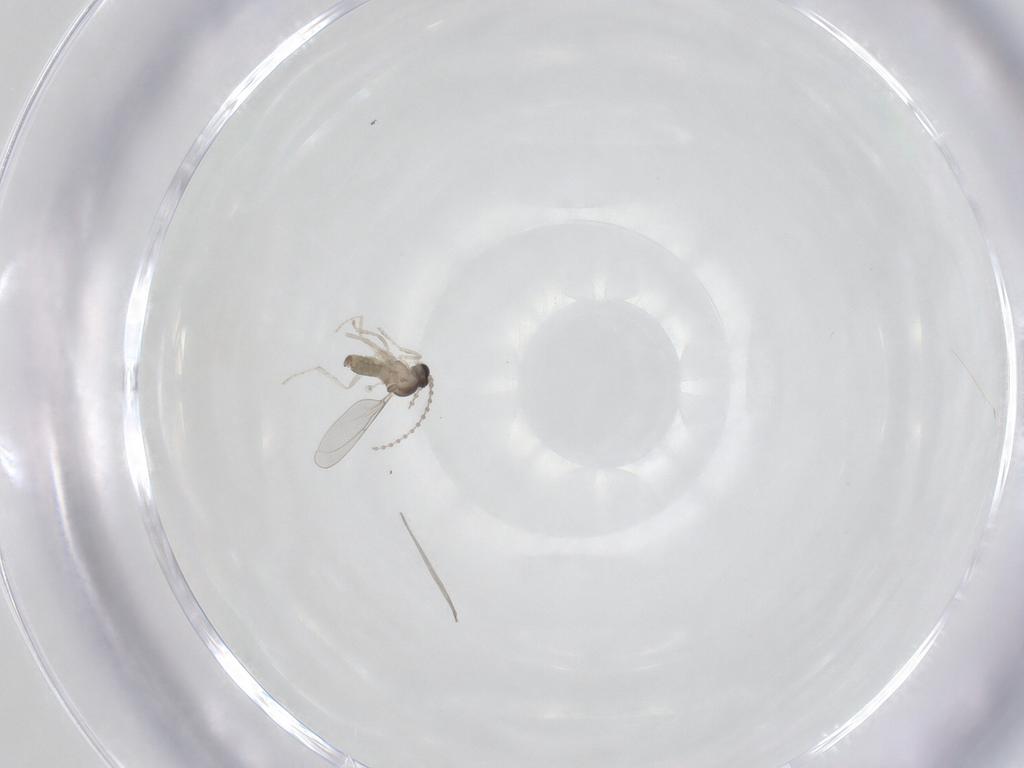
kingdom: Animalia
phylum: Arthropoda
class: Insecta
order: Diptera
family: Cecidomyiidae
